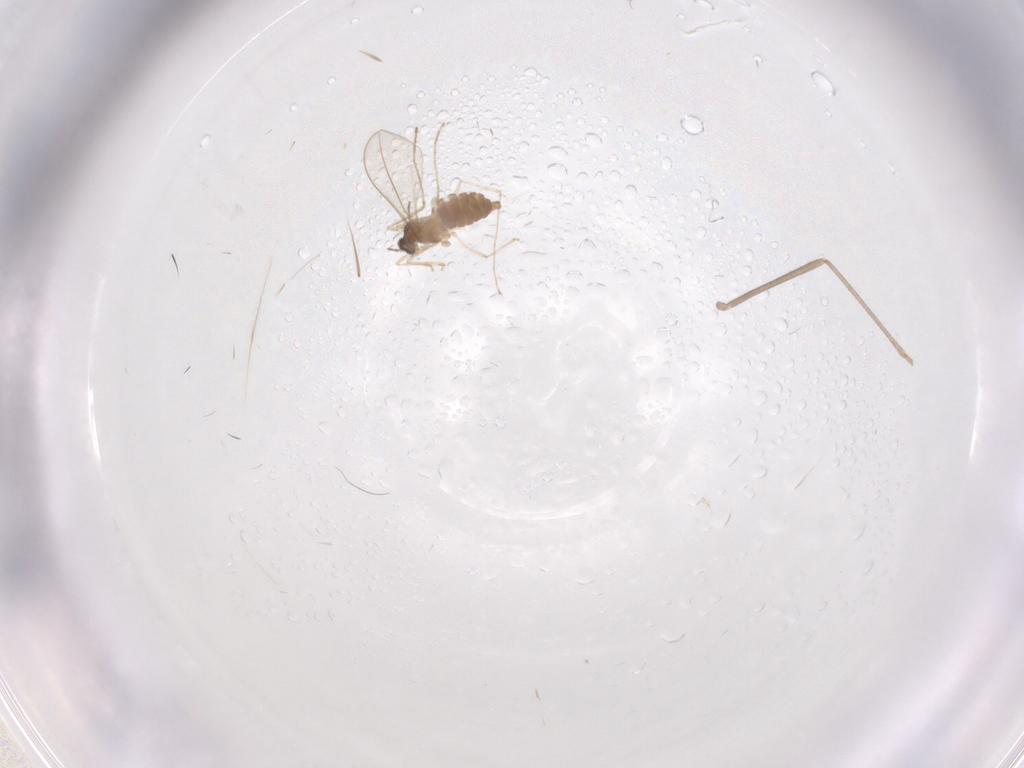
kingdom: Animalia
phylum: Arthropoda
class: Insecta
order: Diptera
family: Cecidomyiidae
